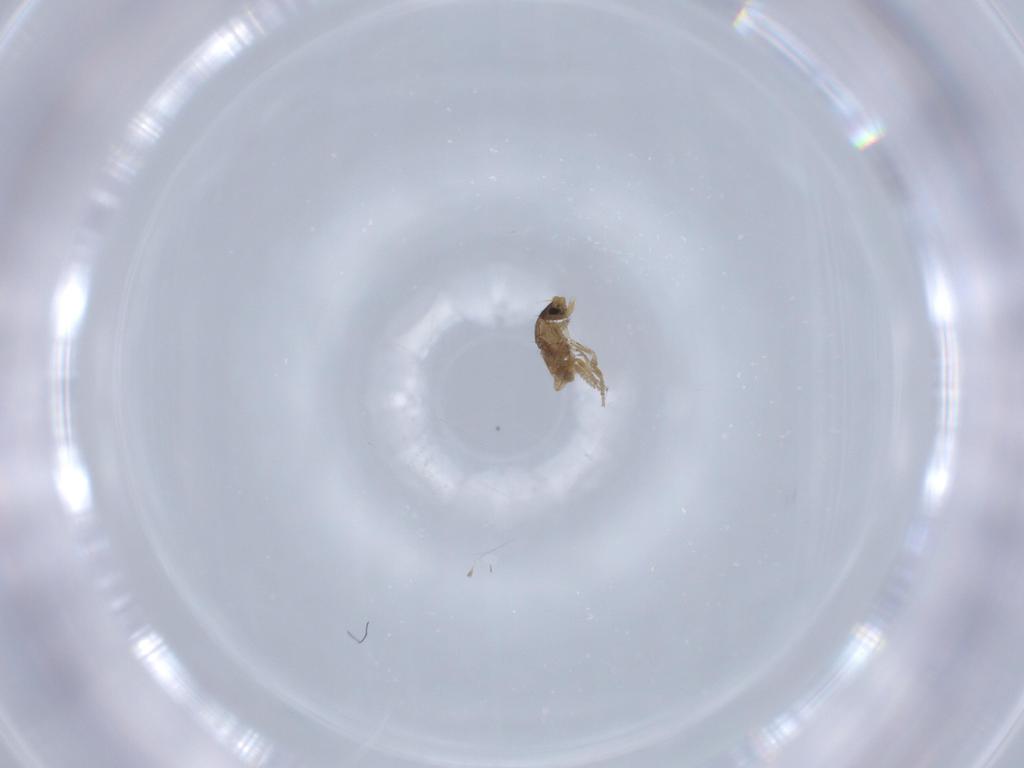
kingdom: Animalia
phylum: Arthropoda
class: Insecta
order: Diptera
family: Phoridae
